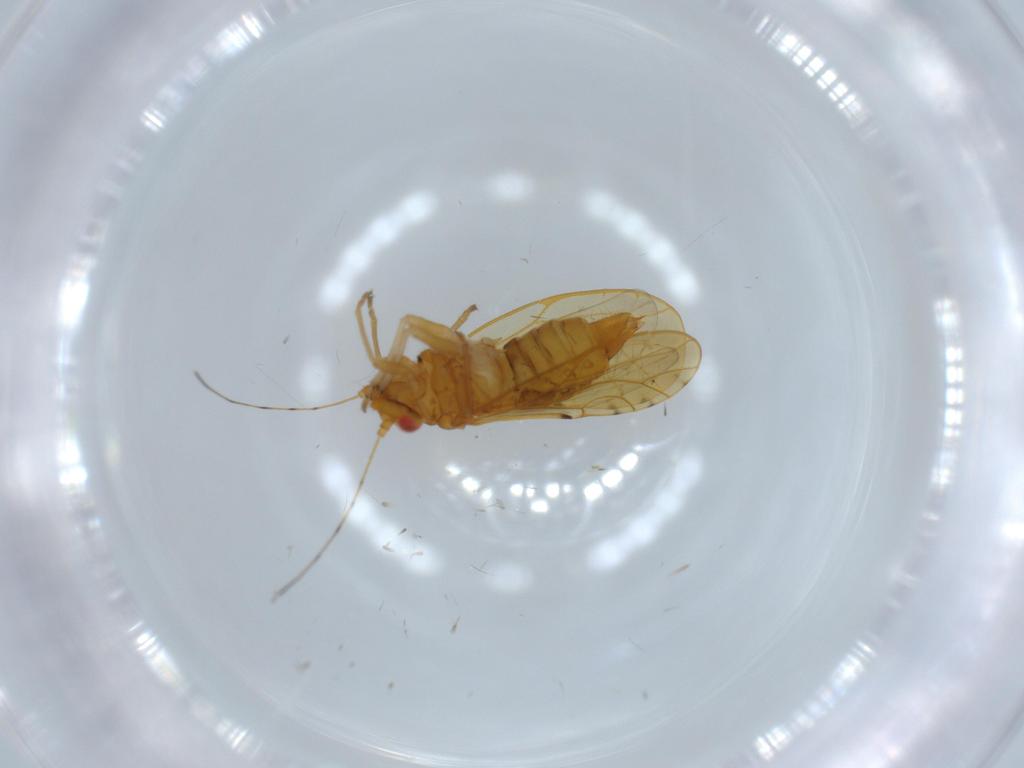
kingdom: Animalia
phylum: Arthropoda
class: Insecta
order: Hemiptera
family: Psylloidea_incertae_sedis
